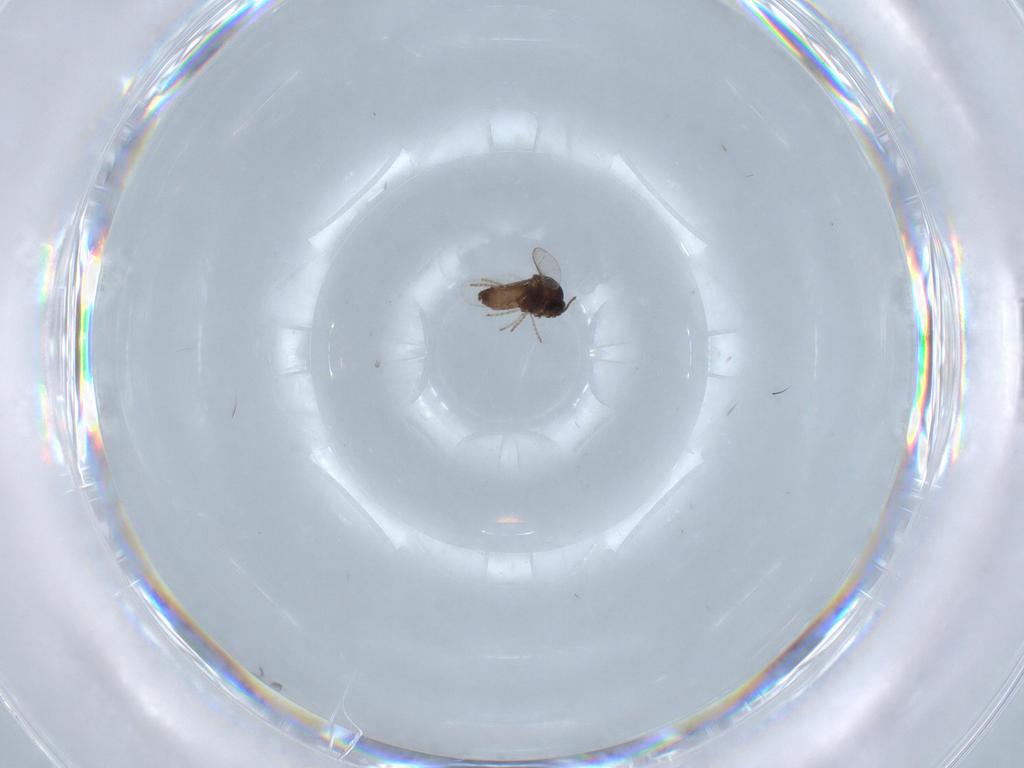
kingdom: Animalia
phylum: Arthropoda
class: Insecta
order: Diptera
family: Ceratopogonidae
